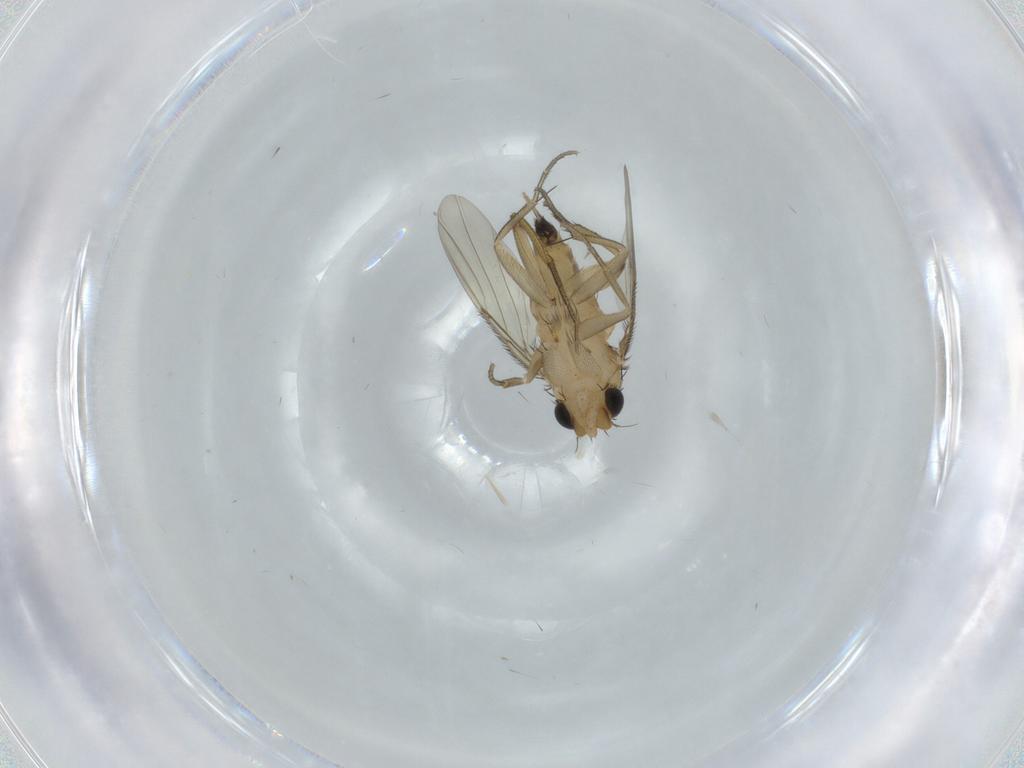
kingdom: Animalia
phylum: Arthropoda
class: Insecta
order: Diptera
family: Phoridae
